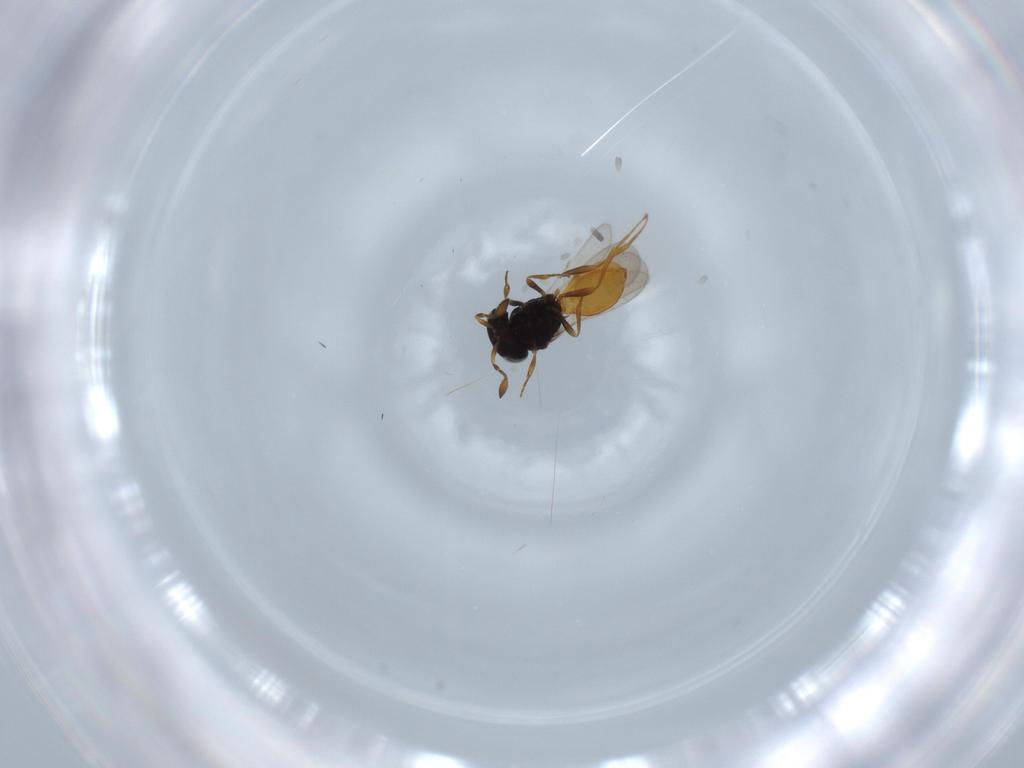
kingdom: Animalia
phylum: Arthropoda
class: Insecta
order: Hymenoptera
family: Scelionidae
